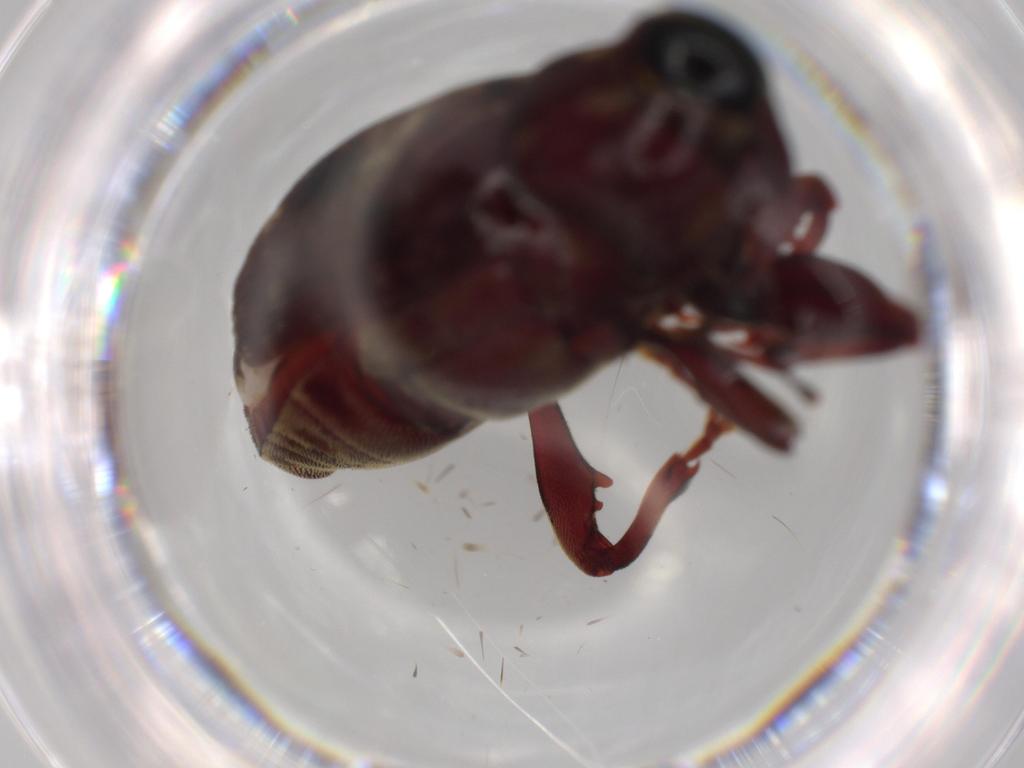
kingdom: Animalia
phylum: Arthropoda
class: Insecta
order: Coleoptera
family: Curculionidae
